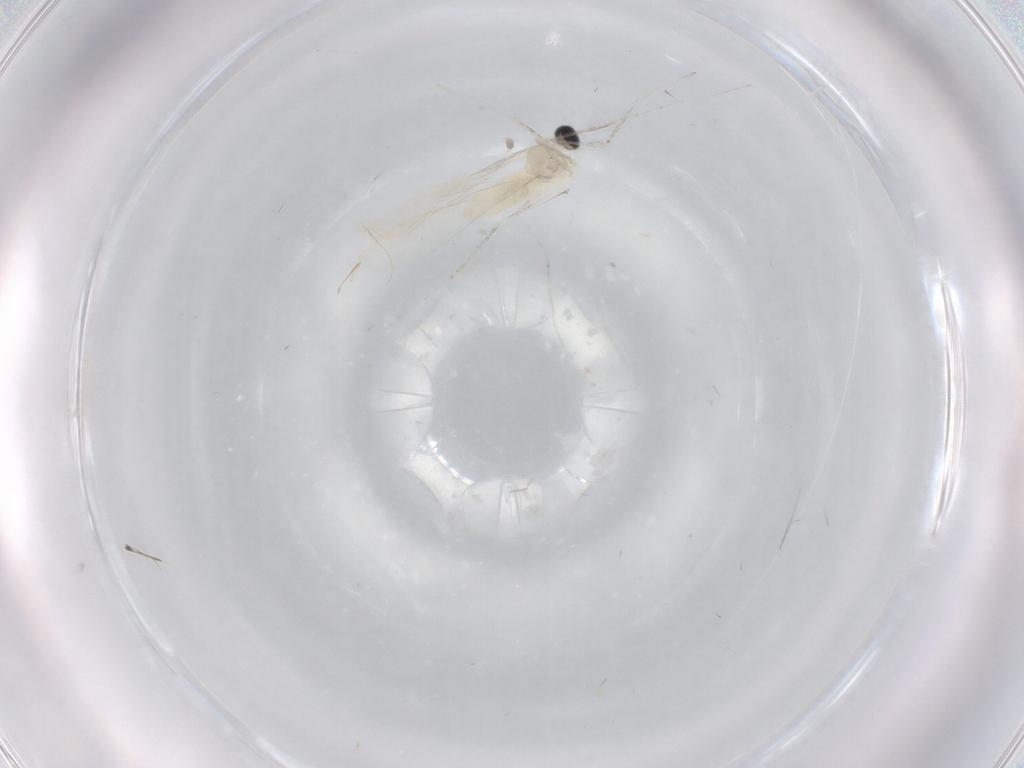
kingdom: Animalia
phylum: Arthropoda
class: Insecta
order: Diptera
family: Cecidomyiidae
